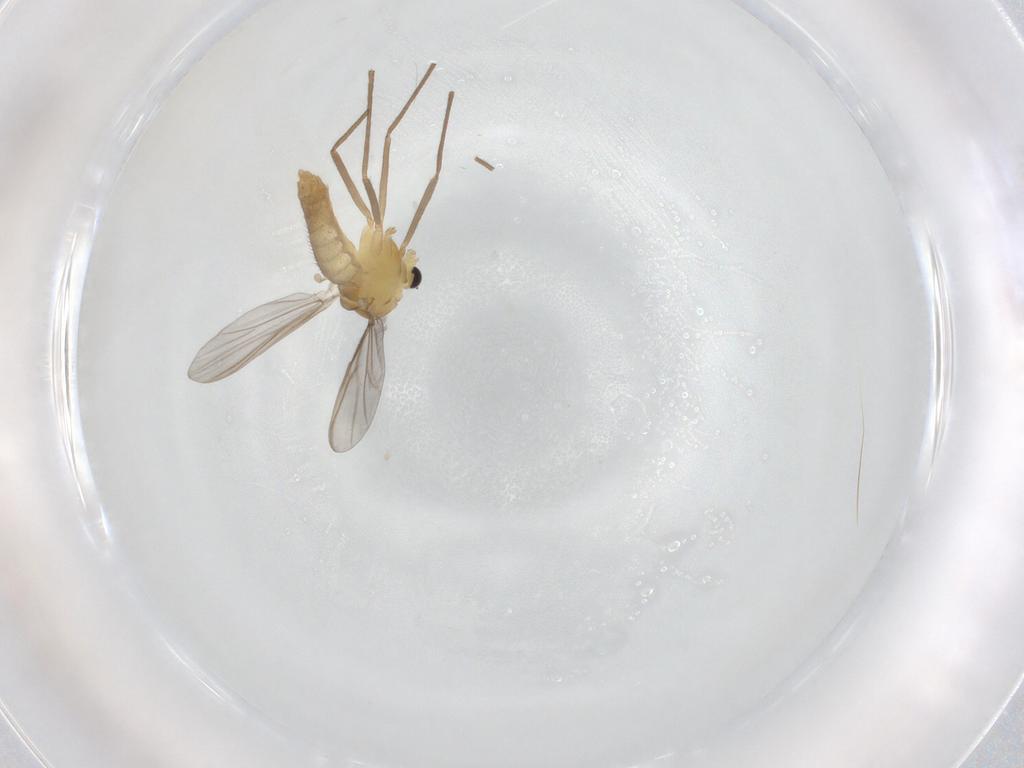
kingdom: Animalia
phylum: Arthropoda
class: Insecta
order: Diptera
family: Chironomidae
